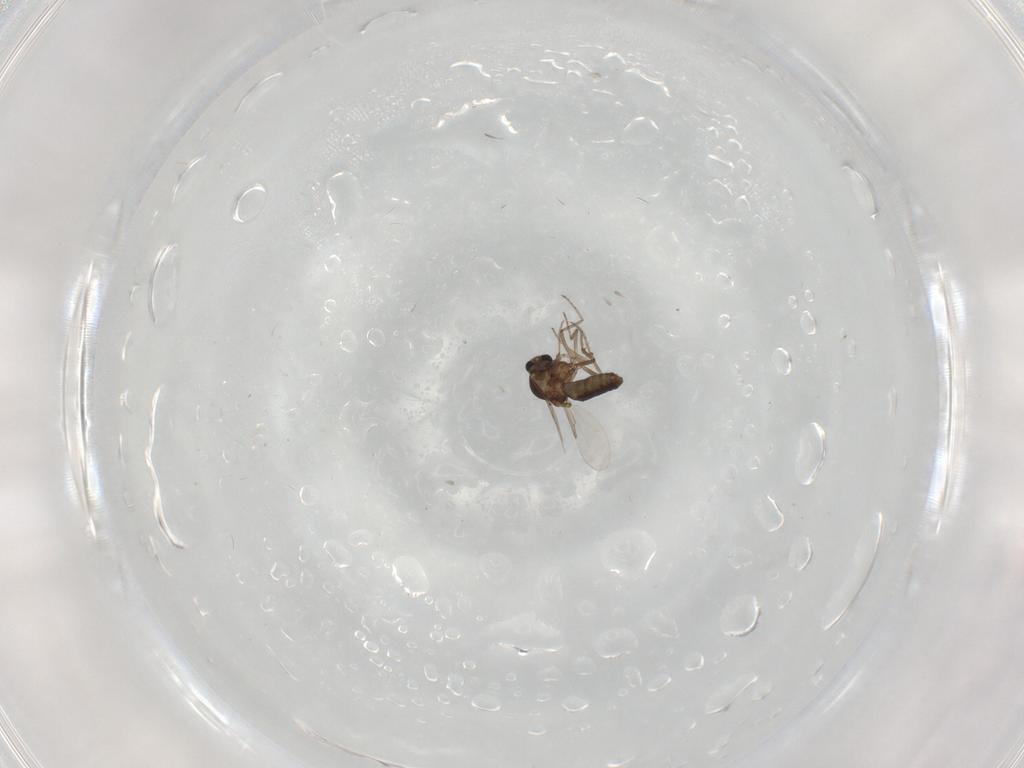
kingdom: Animalia
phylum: Arthropoda
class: Insecta
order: Diptera
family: Ceratopogonidae
